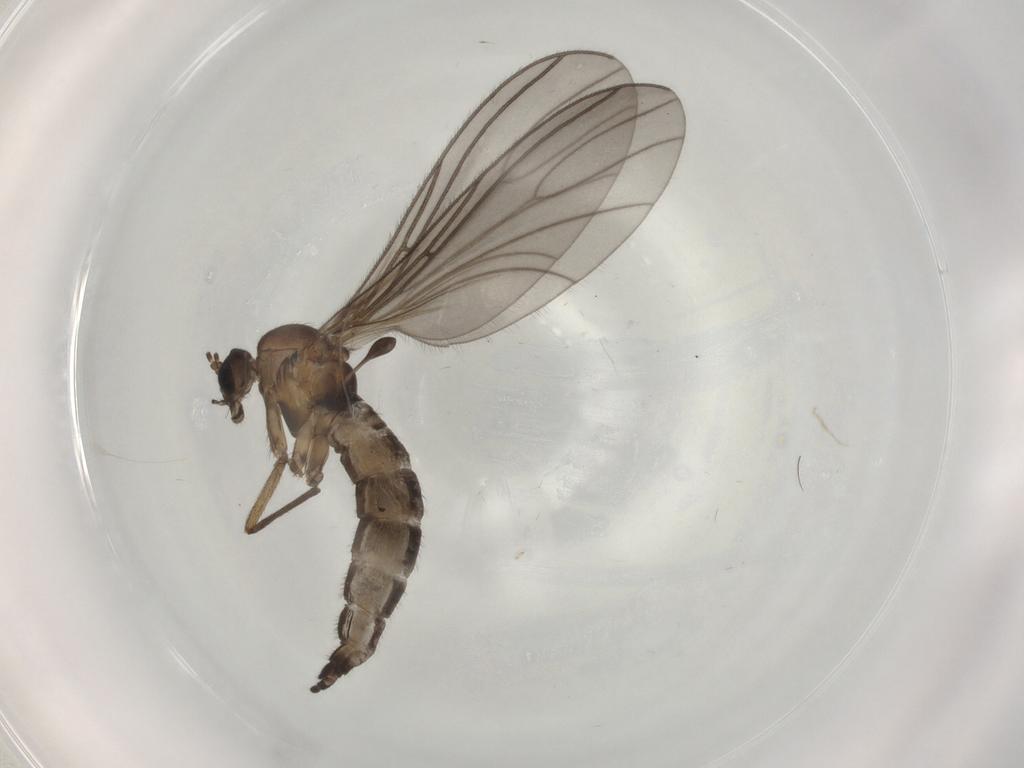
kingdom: Animalia
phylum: Arthropoda
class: Insecta
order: Diptera
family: Sciaridae
